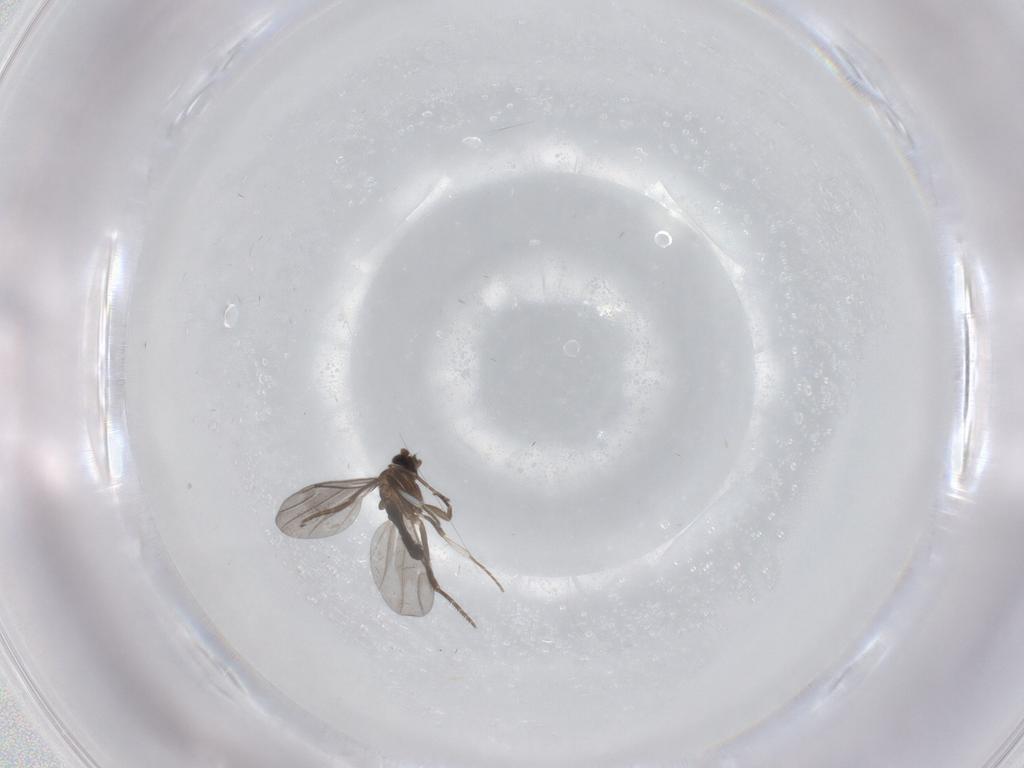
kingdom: Animalia
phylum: Arthropoda
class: Insecta
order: Diptera
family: Phoridae
